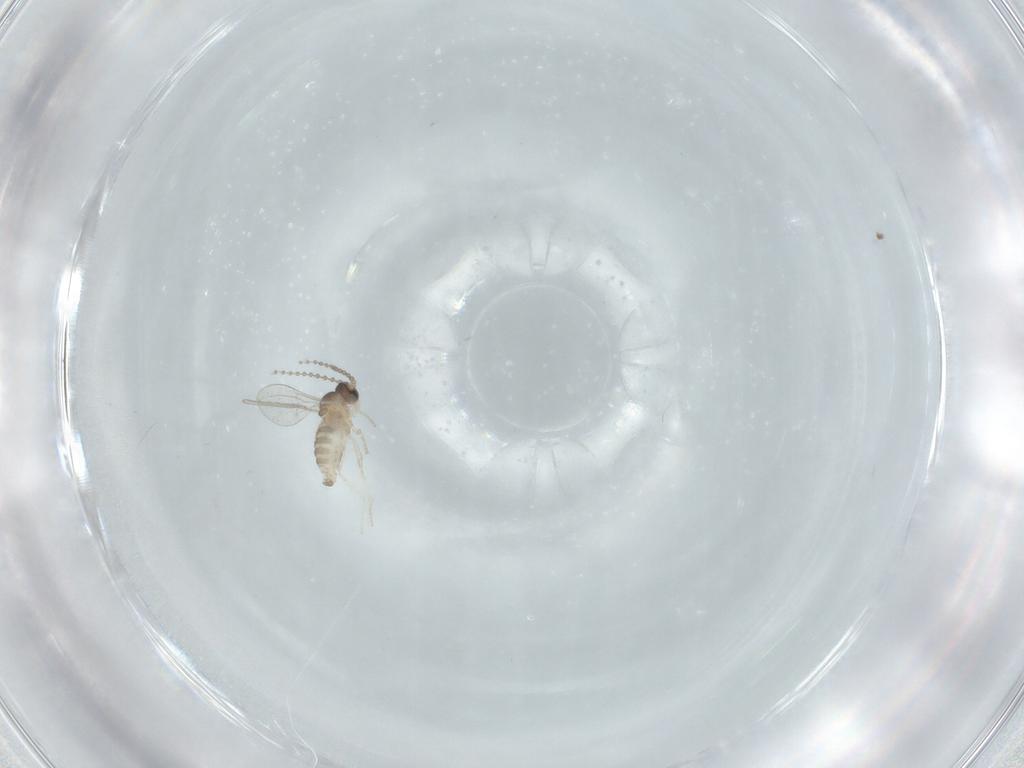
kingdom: Animalia
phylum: Arthropoda
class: Insecta
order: Diptera
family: Cecidomyiidae
